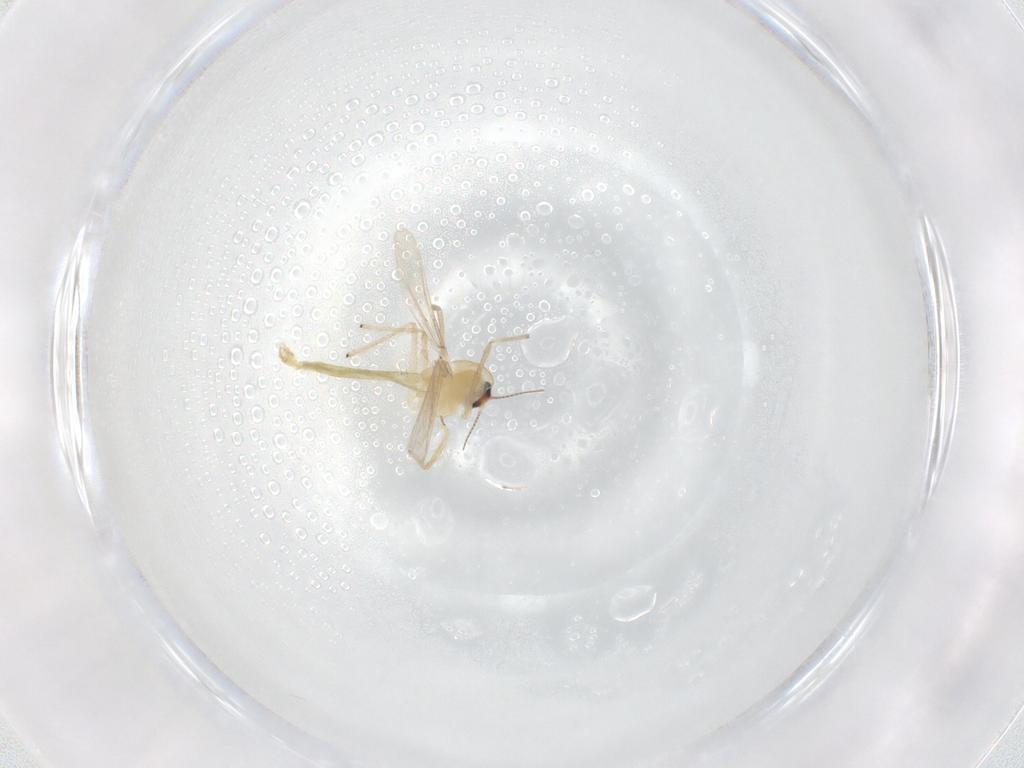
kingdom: Animalia
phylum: Arthropoda
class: Insecta
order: Diptera
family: Chironomidae
